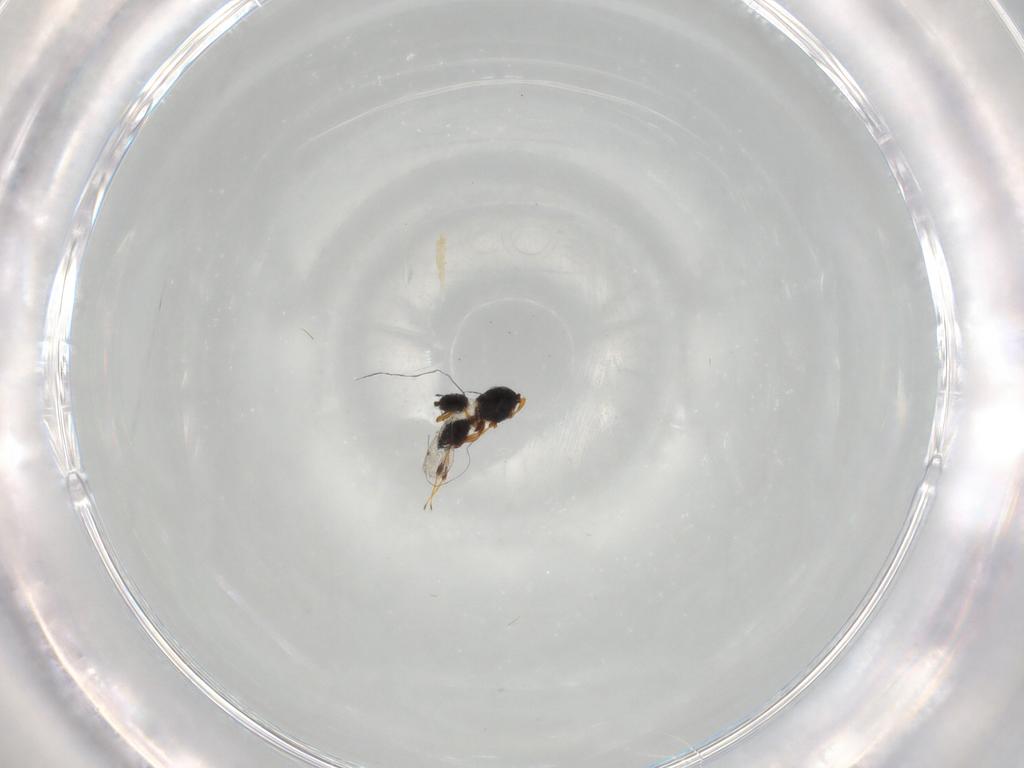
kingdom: Animalia
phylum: Arthropoda
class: Insecta
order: Hymenoptera
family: Platygastridae
